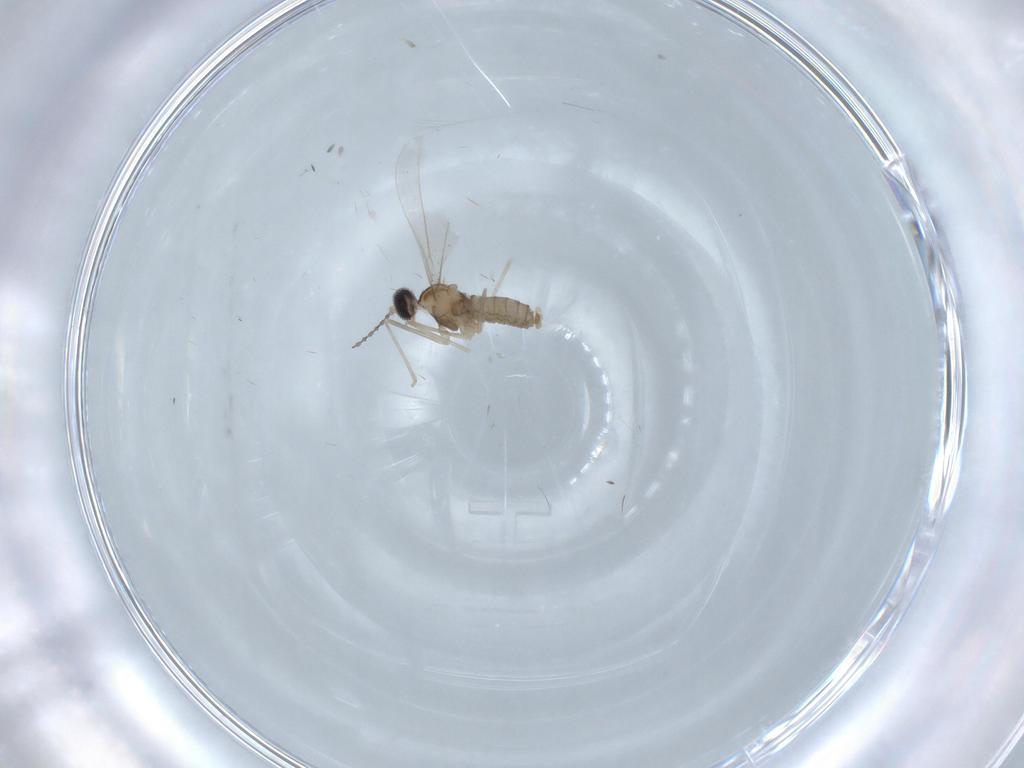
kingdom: Animalia
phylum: Arthropoda
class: Insecta
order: Diptera
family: Cecidomyiidae
